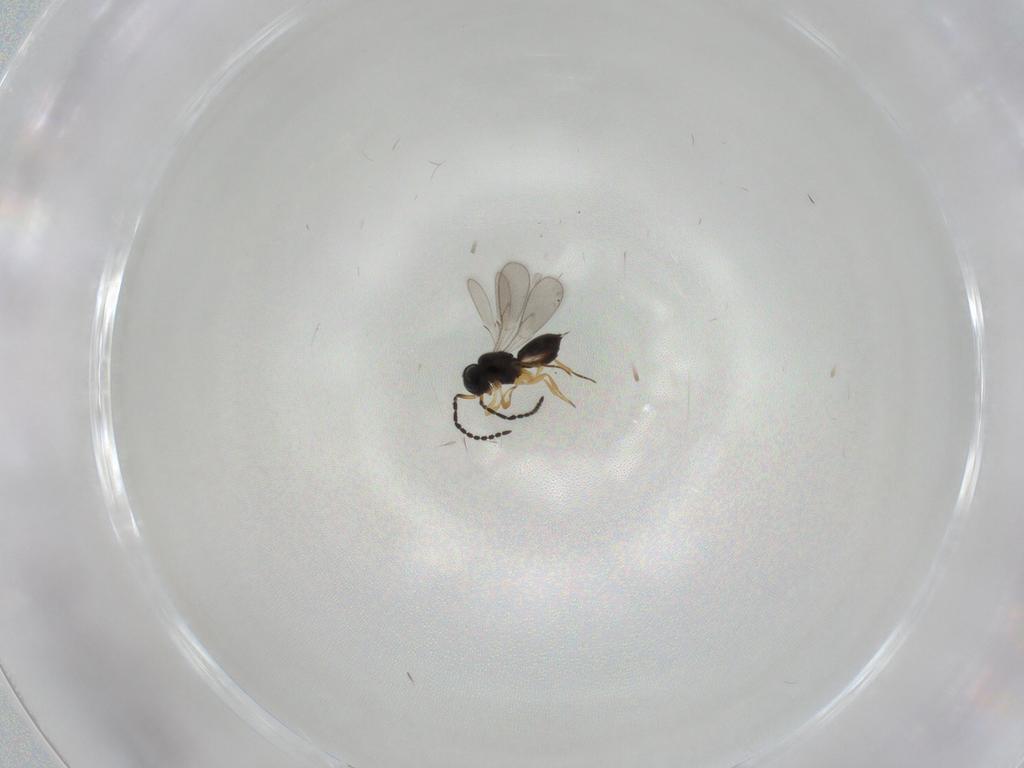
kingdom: Animalia
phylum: Arthropoda
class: Insecta
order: Hymenoptera
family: Scelionidae
